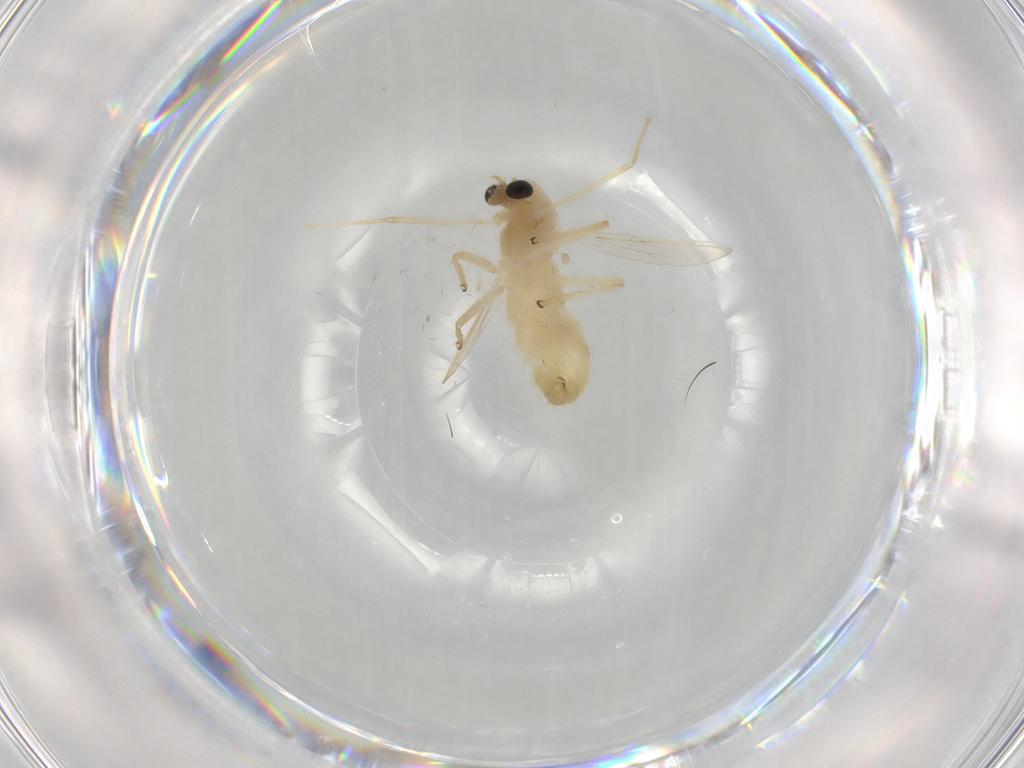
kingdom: Animalia
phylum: Arthropoda
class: Insecta
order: Diptera
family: Chironomidae
